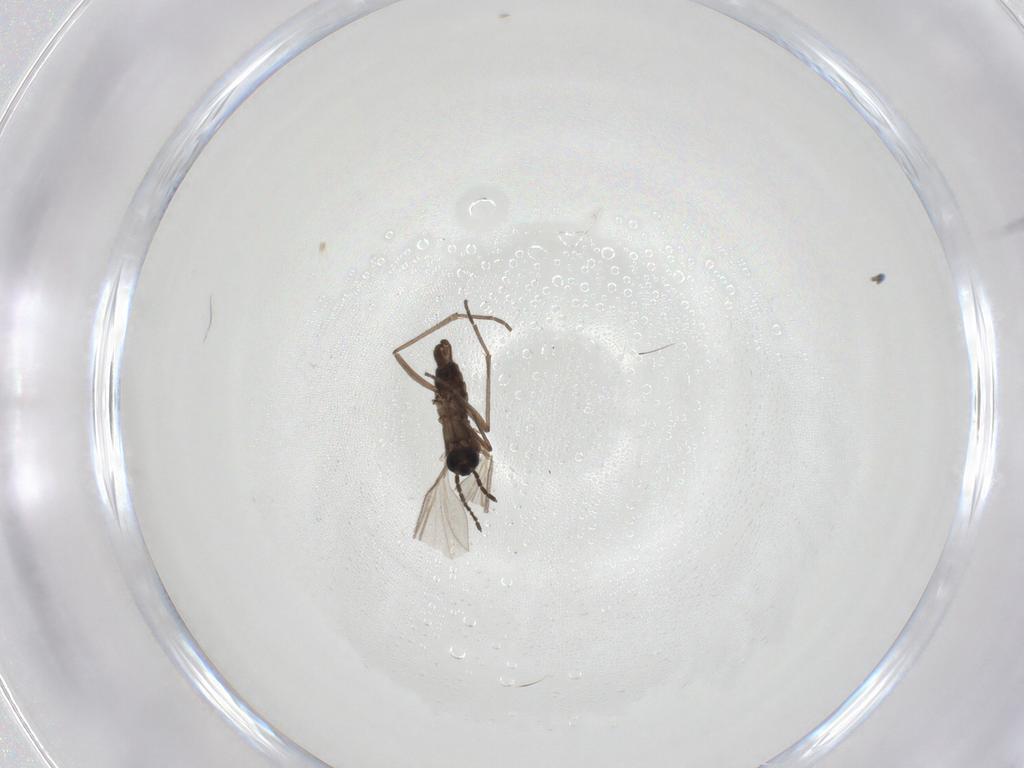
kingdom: Animalia
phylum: Arthropoda
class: Insecta
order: Diptera
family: Sciaridae
